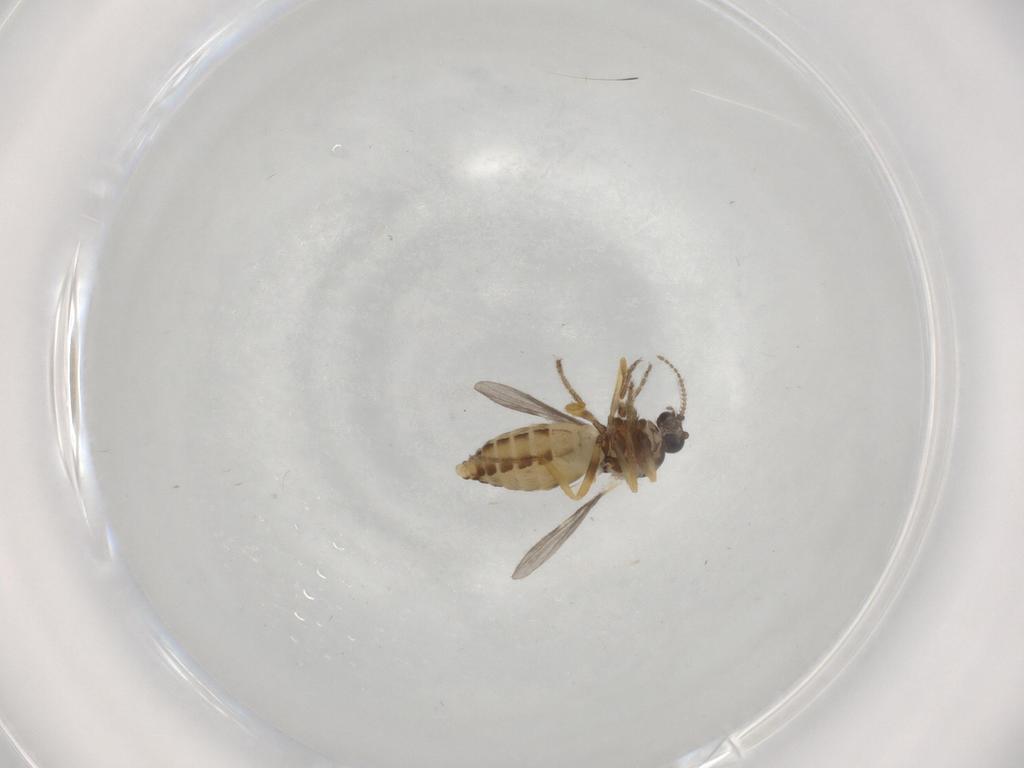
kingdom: Animalia
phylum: Arthropoda
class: Insecta
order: Diptera
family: Ceratopogonidae
